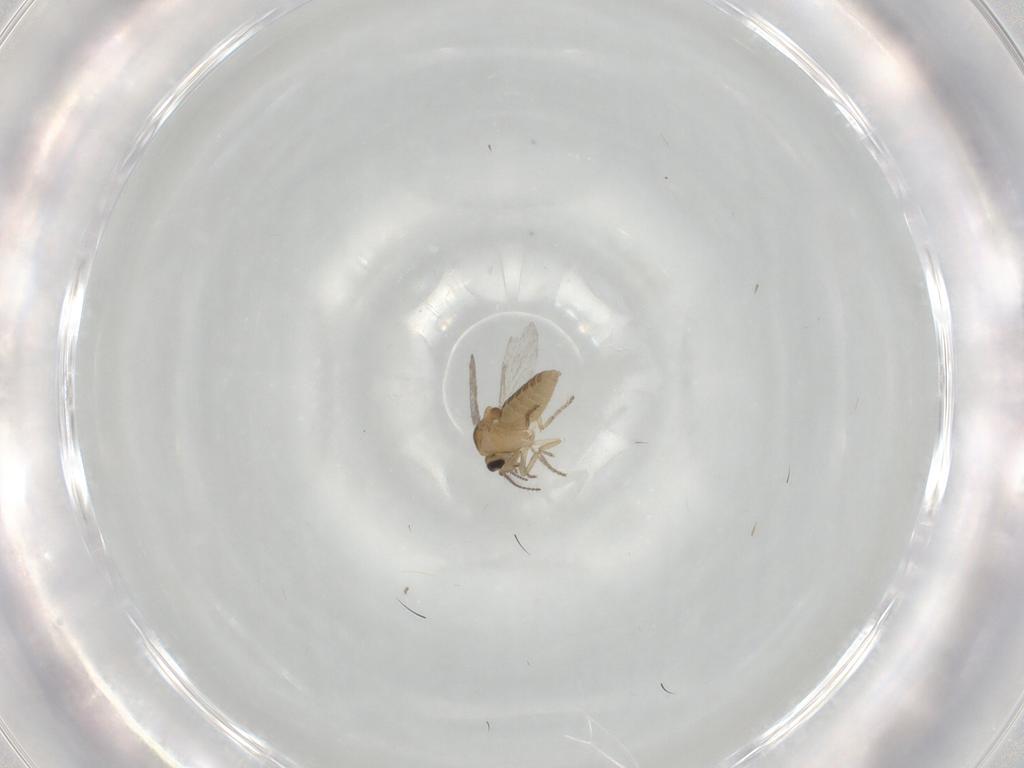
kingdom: Animalia
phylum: Arthropoda
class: Insecta
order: Diptera
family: Ceratopogonidae
